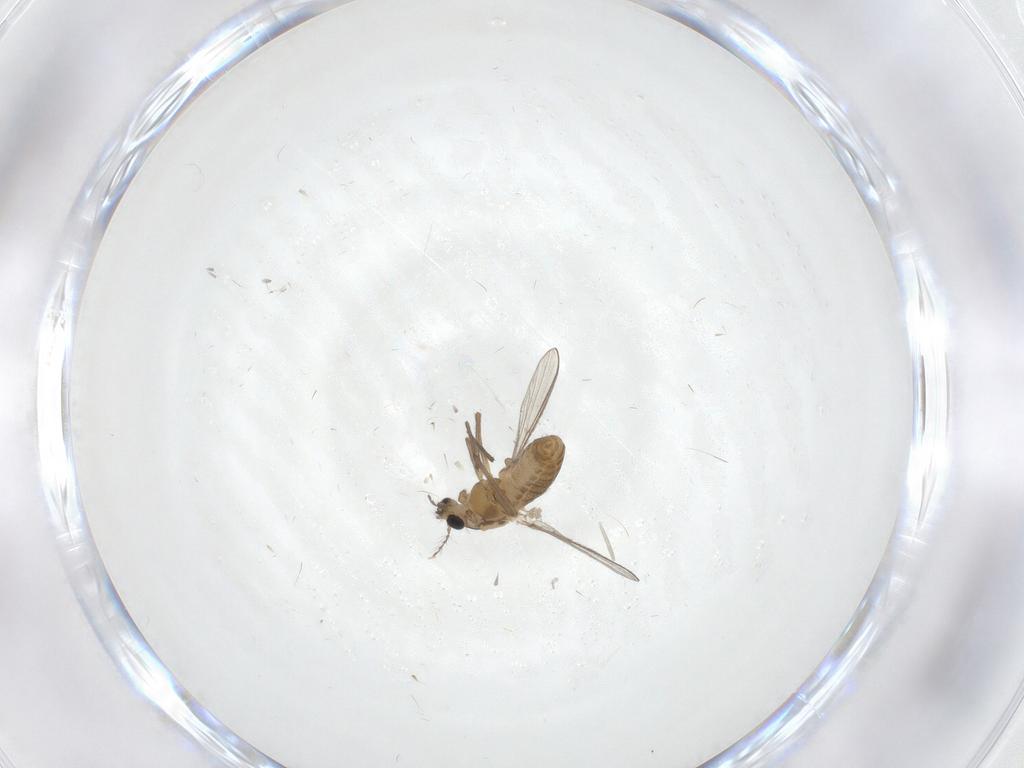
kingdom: Animalia
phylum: Arthropoda
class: Insecta
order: Diptera
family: Chironomidae
